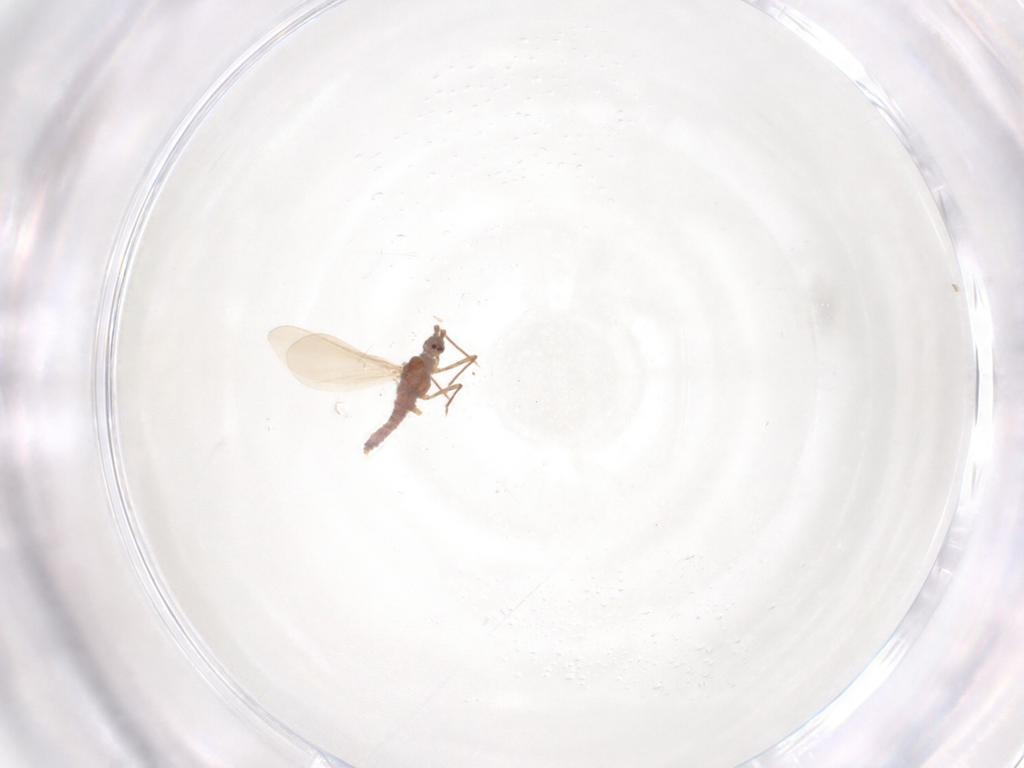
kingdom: Animalia
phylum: Arthropoda
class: Insecta
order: Hemiptera
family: Coccoidea_incertae_sedis
